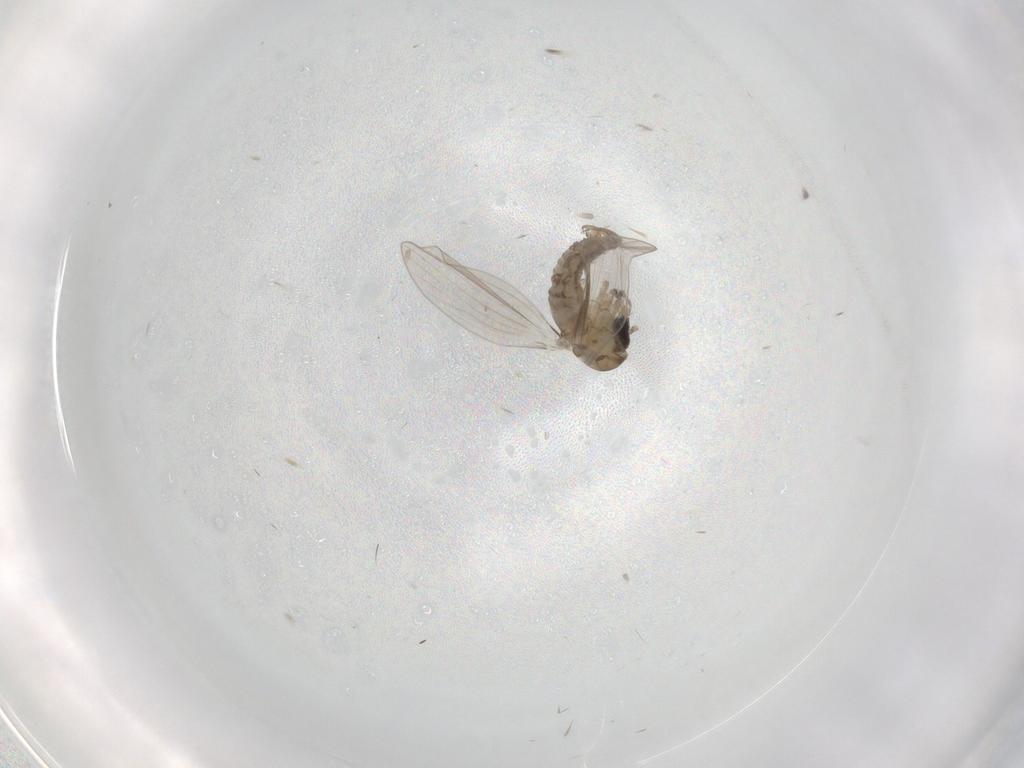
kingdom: Animalia
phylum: Arthropoda
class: Insecta
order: Diptera
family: Drosophilidae
